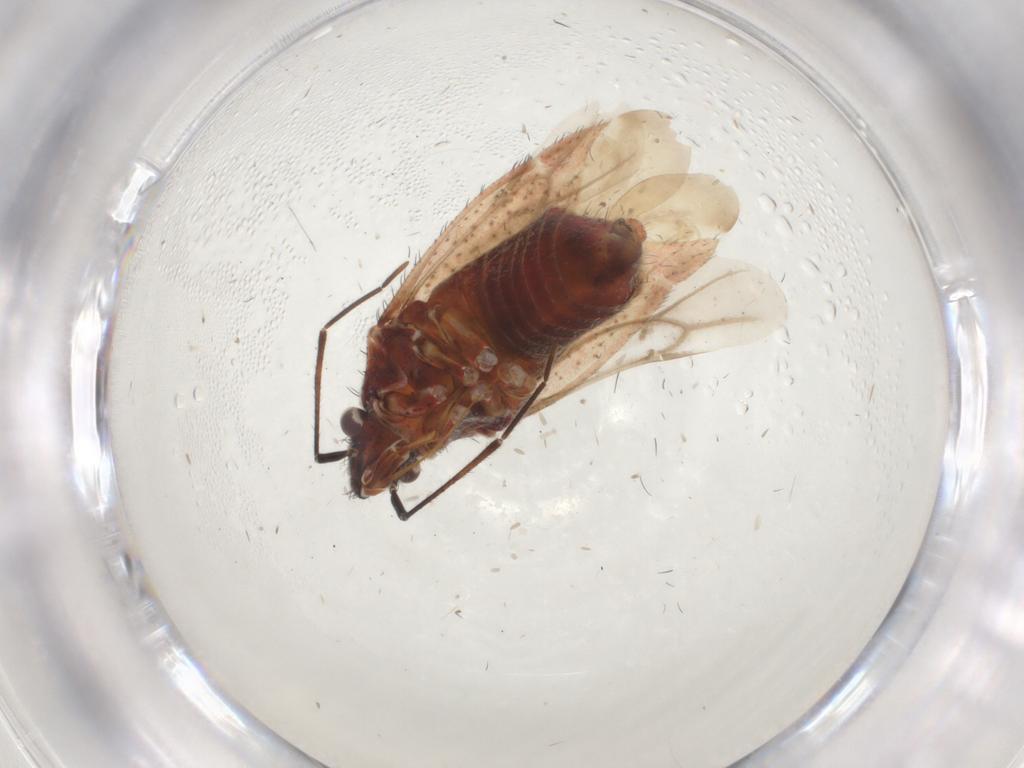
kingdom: Animalia
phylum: Arthropoda
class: Insecta
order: Hemiptera
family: Miridae
